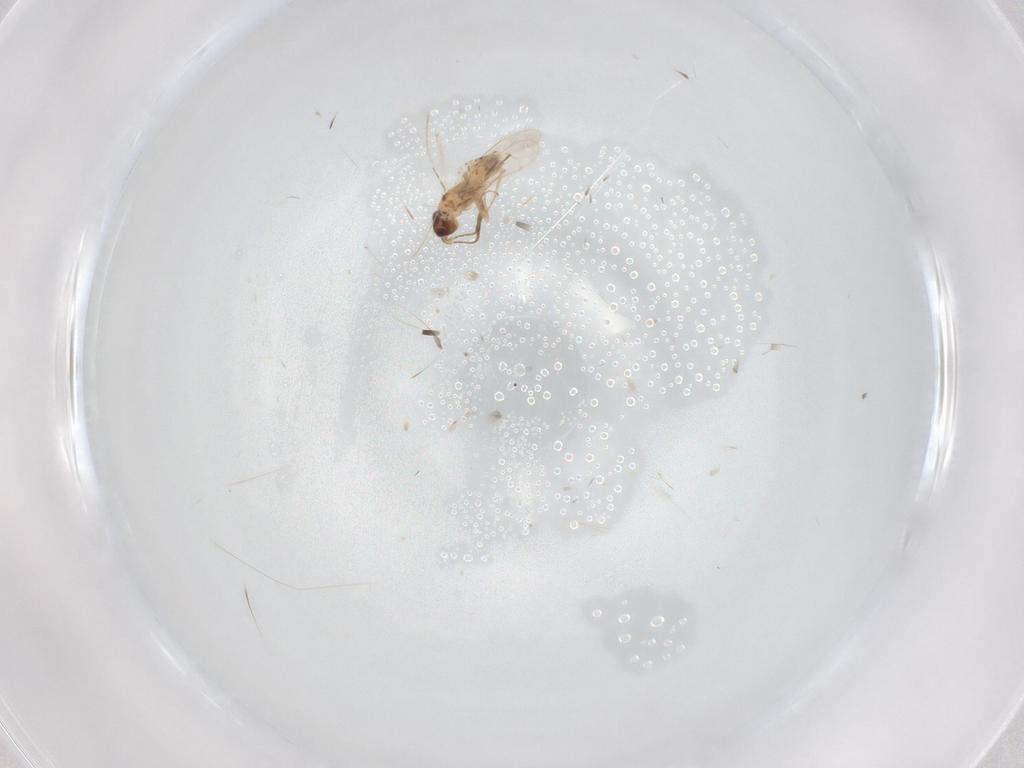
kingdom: Animalia
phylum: Arthropoda
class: Insecta
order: Hymenoptera
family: Mymaridae
